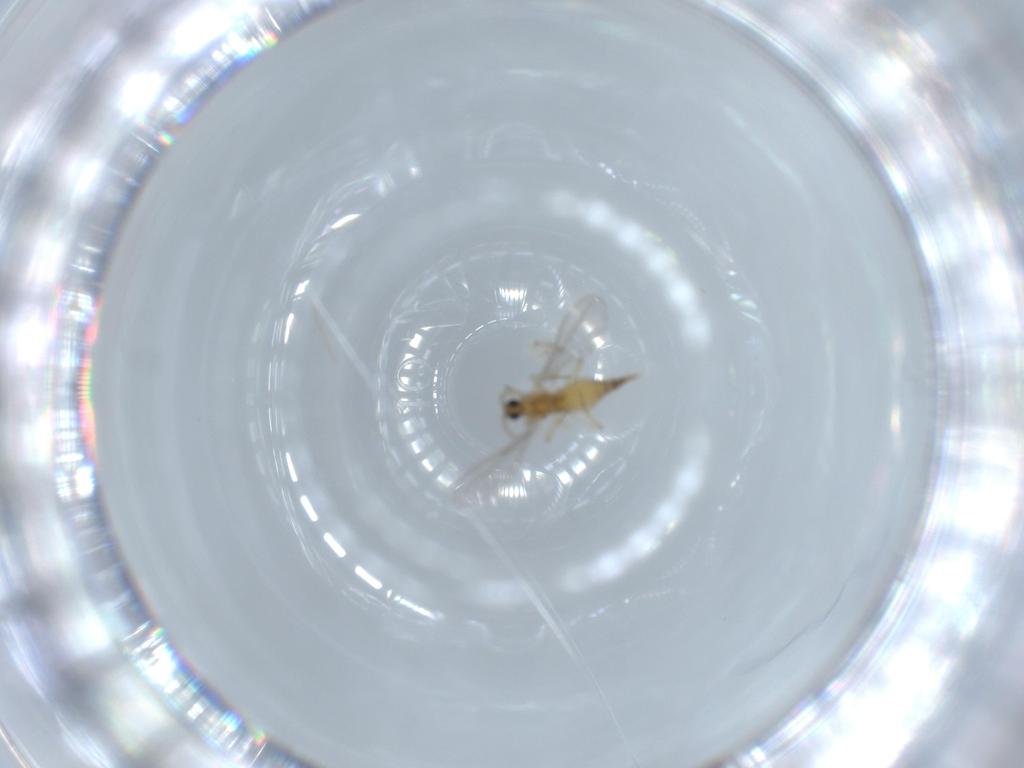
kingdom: Animalia
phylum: Arthropoda
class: Insecta
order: Diptera
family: Cecidomyiidae
